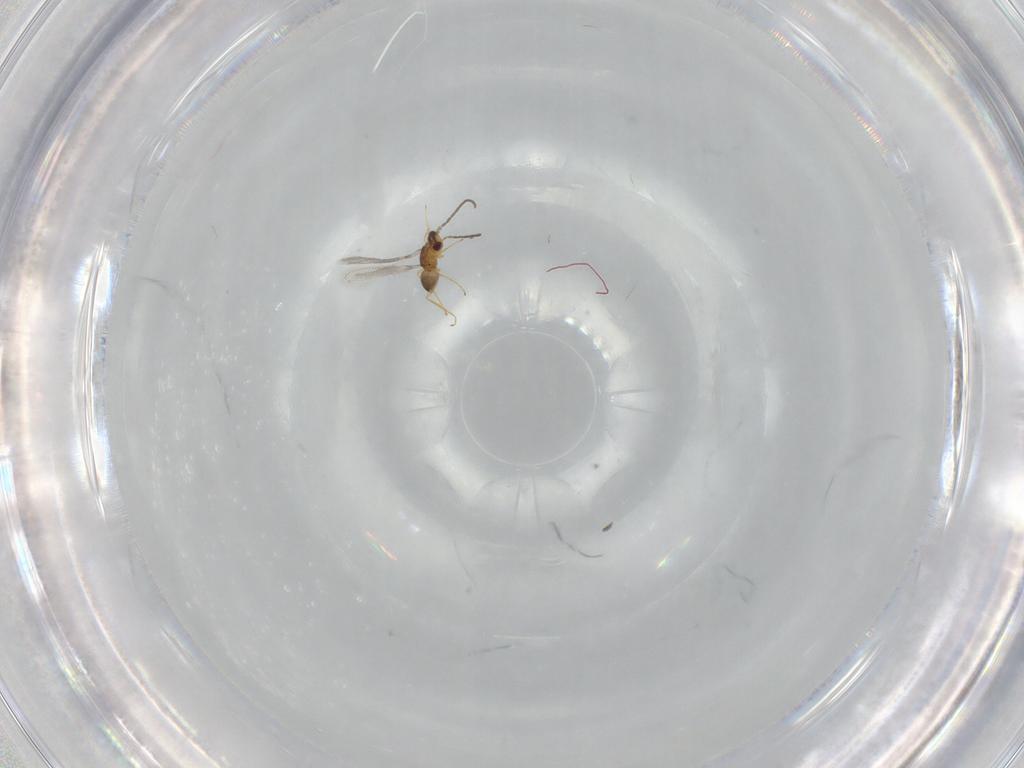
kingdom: Animalia
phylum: Arthropoda
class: Insecta
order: Hymenoptera
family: Mymaridae
